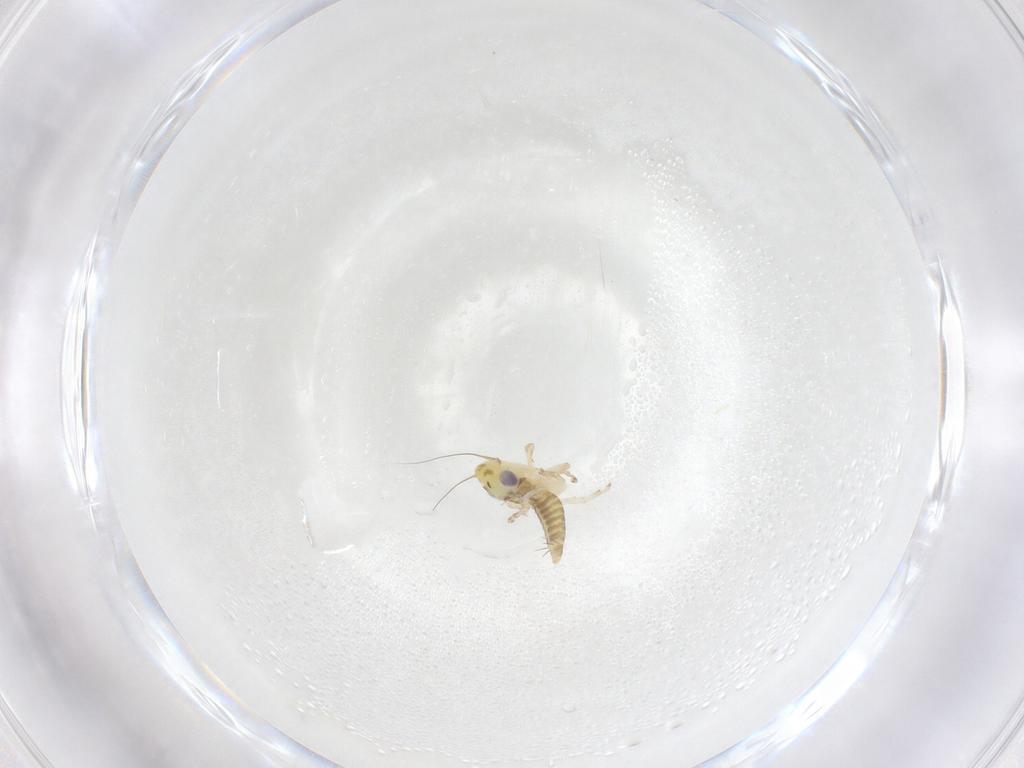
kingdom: Animalia
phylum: Arthropoda
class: Insecta
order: Hemiptera
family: Cicadellidae
